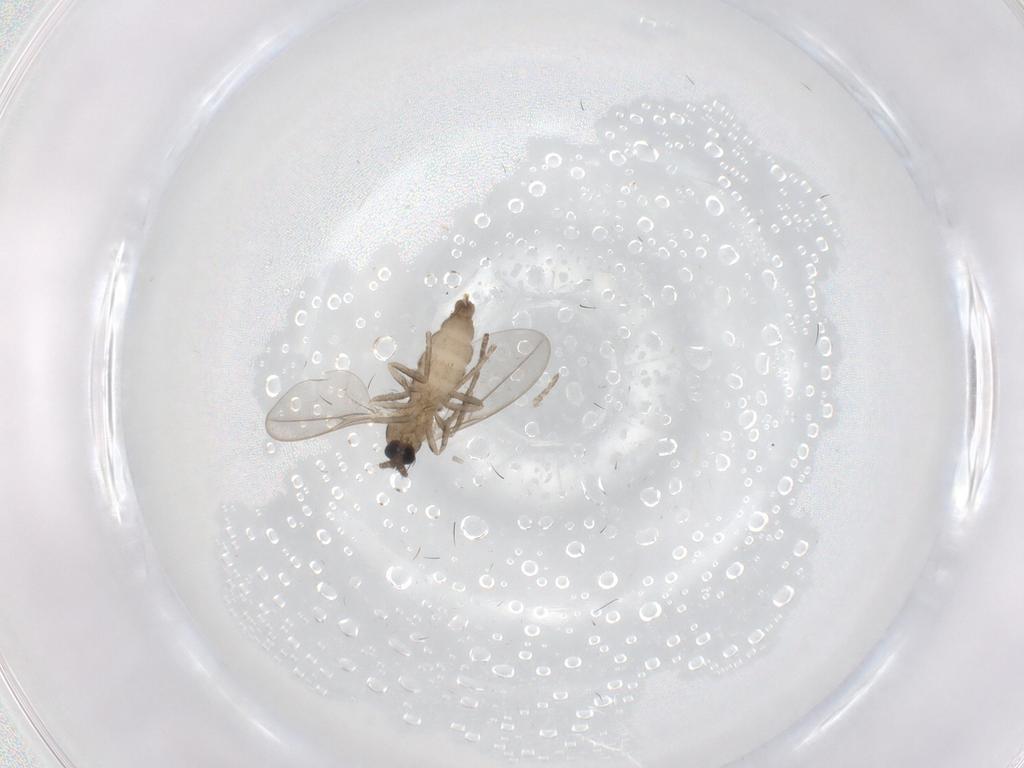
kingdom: Animalia
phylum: Arthropoda
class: Insecta
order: Diptera
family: Cecidomyiidae
